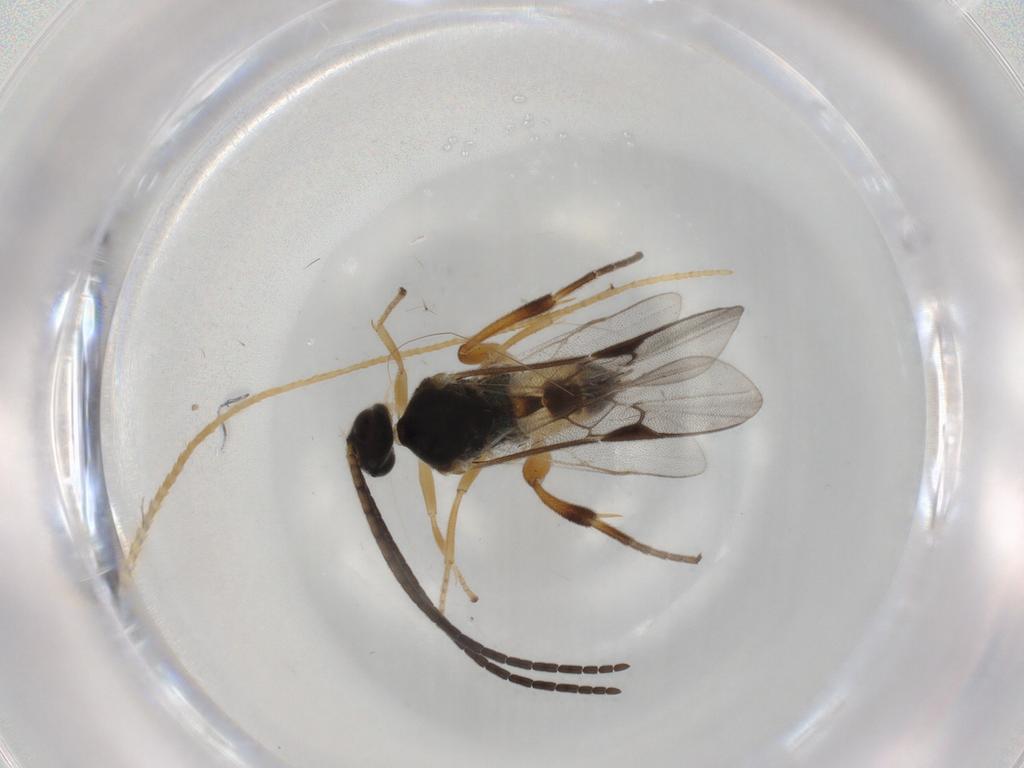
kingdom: Animalia
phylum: Arthropoda
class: Insecta
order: Hymenoptera
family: Braconidae
